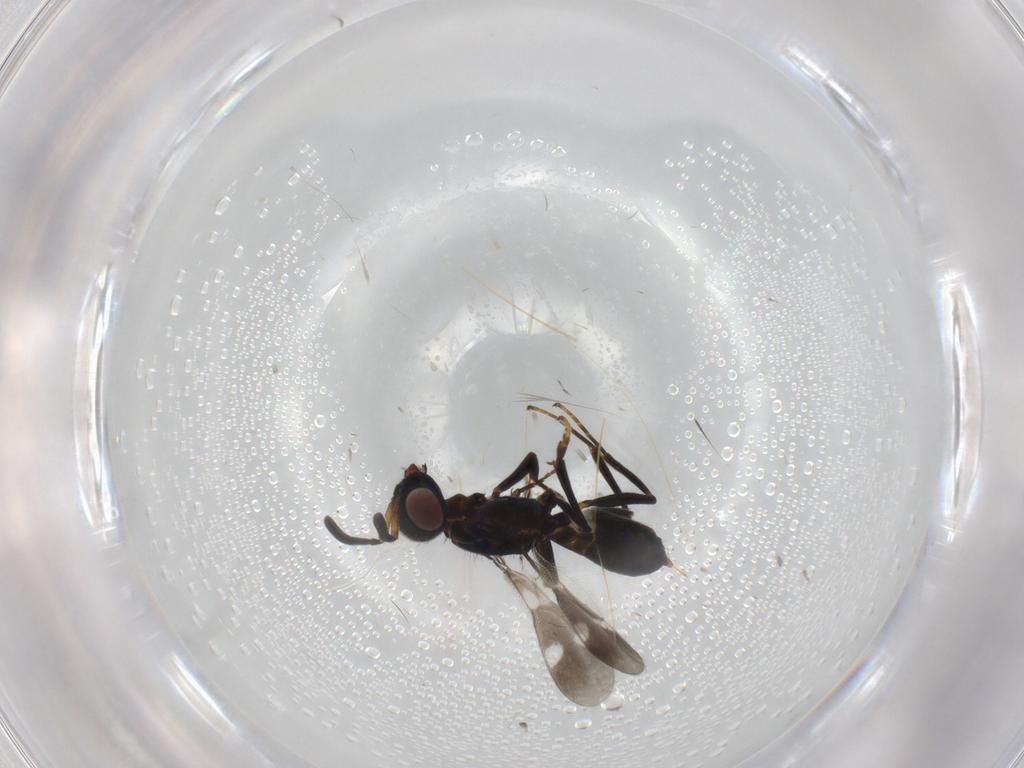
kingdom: Animalia
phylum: Arthropoda
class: Insecta
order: Hymenoptera
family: Eupelmidae
